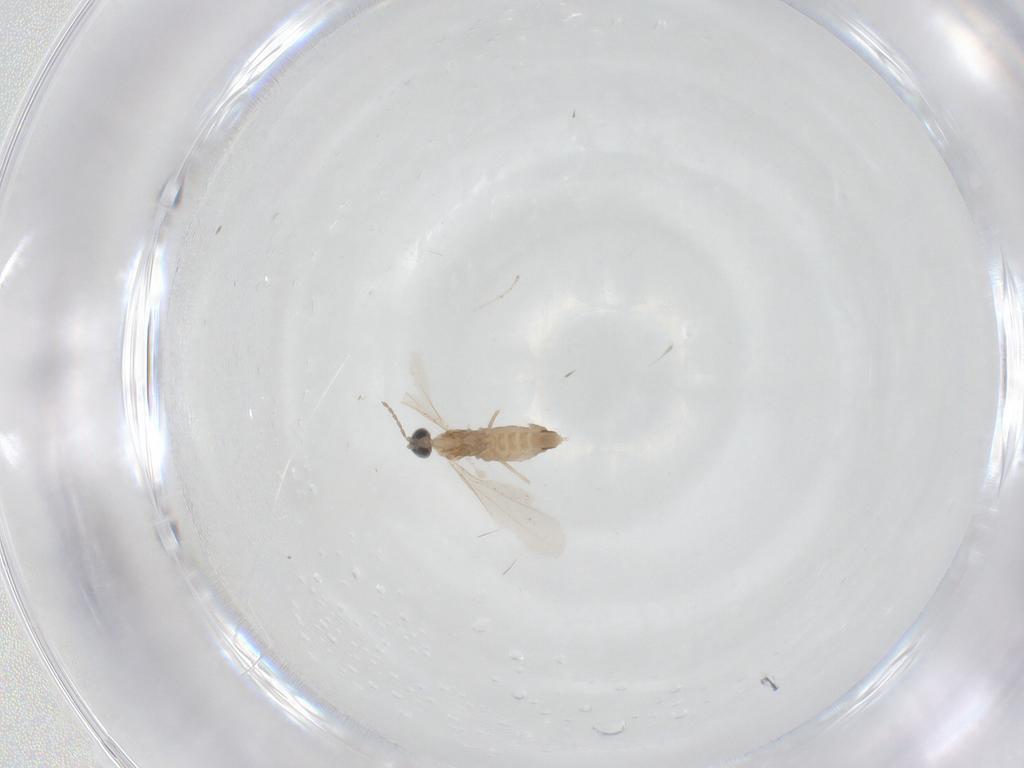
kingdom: Animalia
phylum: Arthropoda
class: Insecta
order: Diptera
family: Cecidomyiidae
